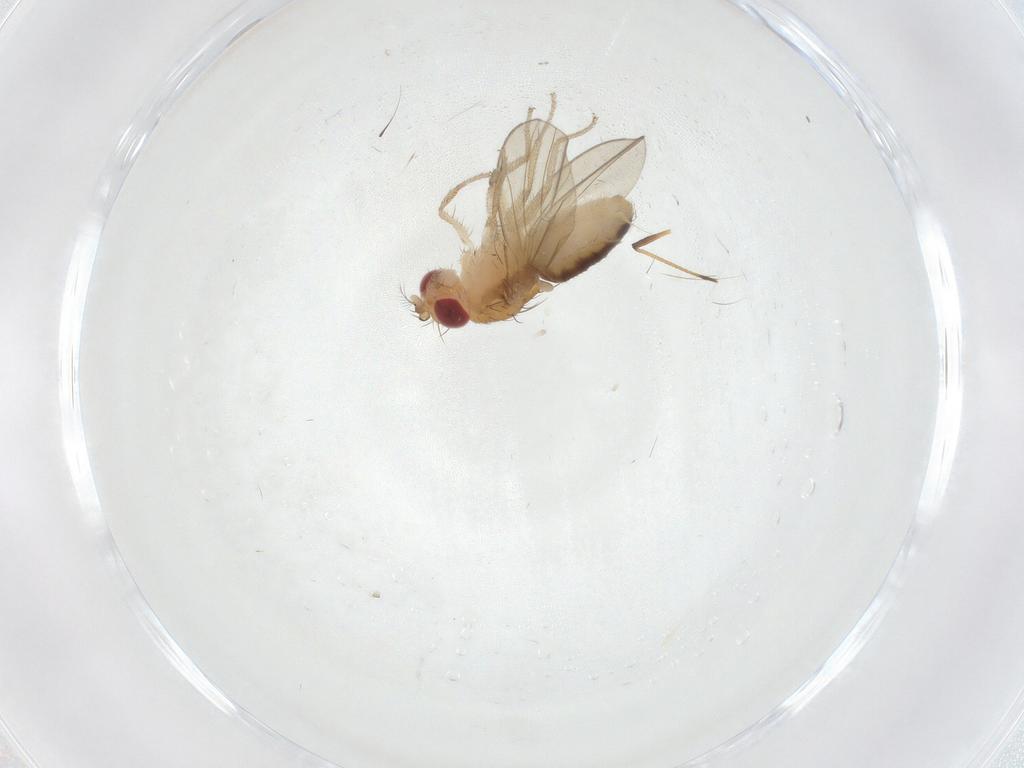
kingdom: Animalia
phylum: Arthropoda
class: Insecta
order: Diptera
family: Drosophilidae
